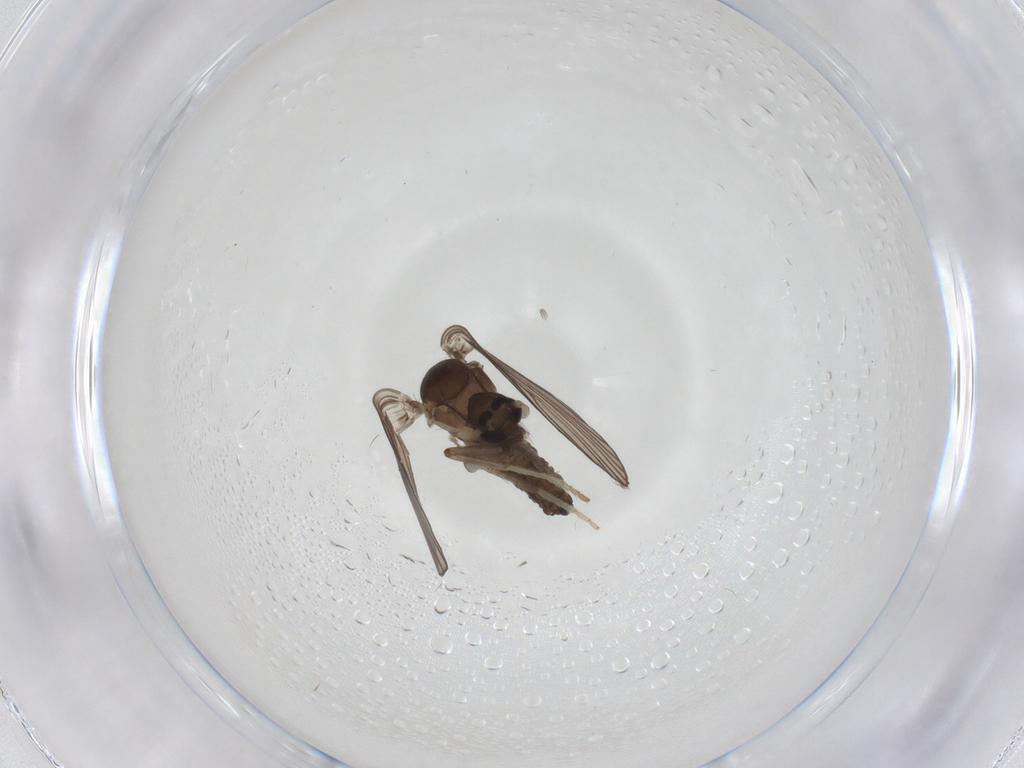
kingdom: Animalia
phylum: Arthropoda
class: Insecta
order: Diptera
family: Psychodidae
